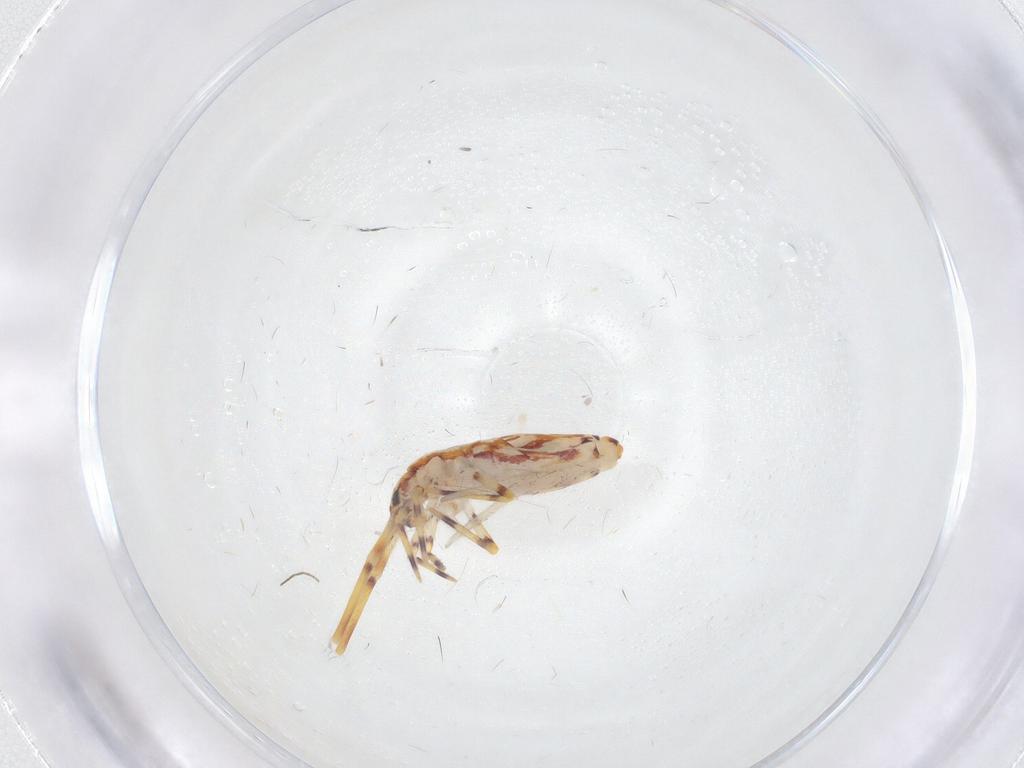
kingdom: Animalia
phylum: Arthropoda
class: Collembola
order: Entomobryomorpha
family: Entomobryidae
